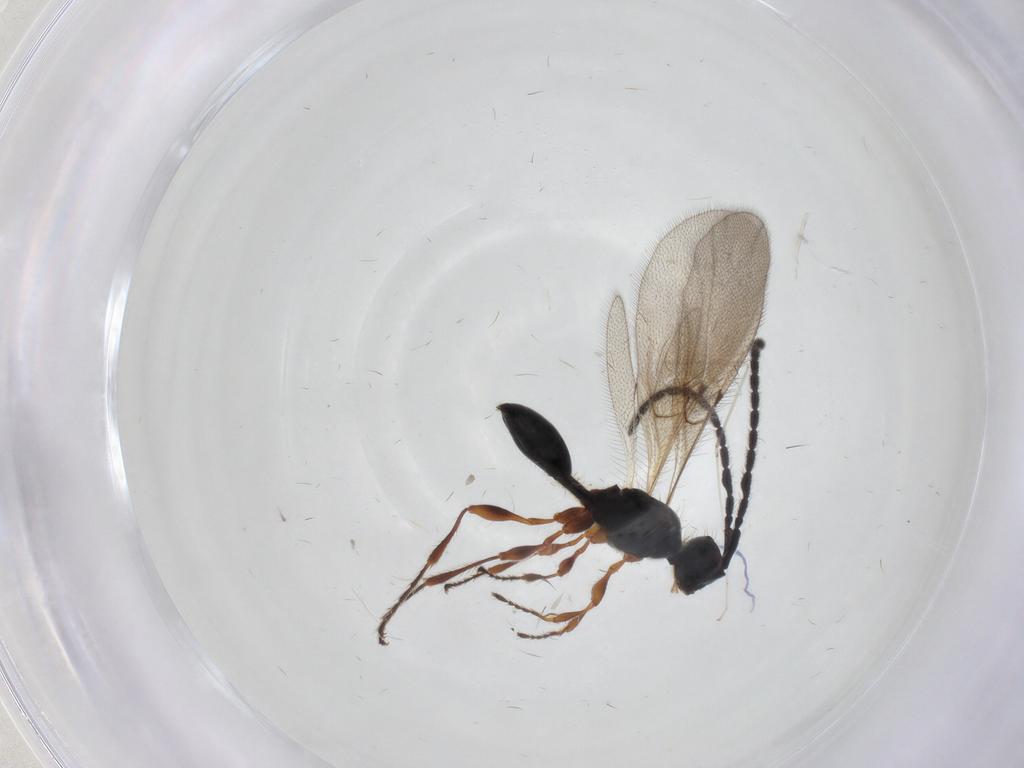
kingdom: Animalia
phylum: Arthropoda
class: Insecta
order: Hymenoptera
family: Diapriidae
